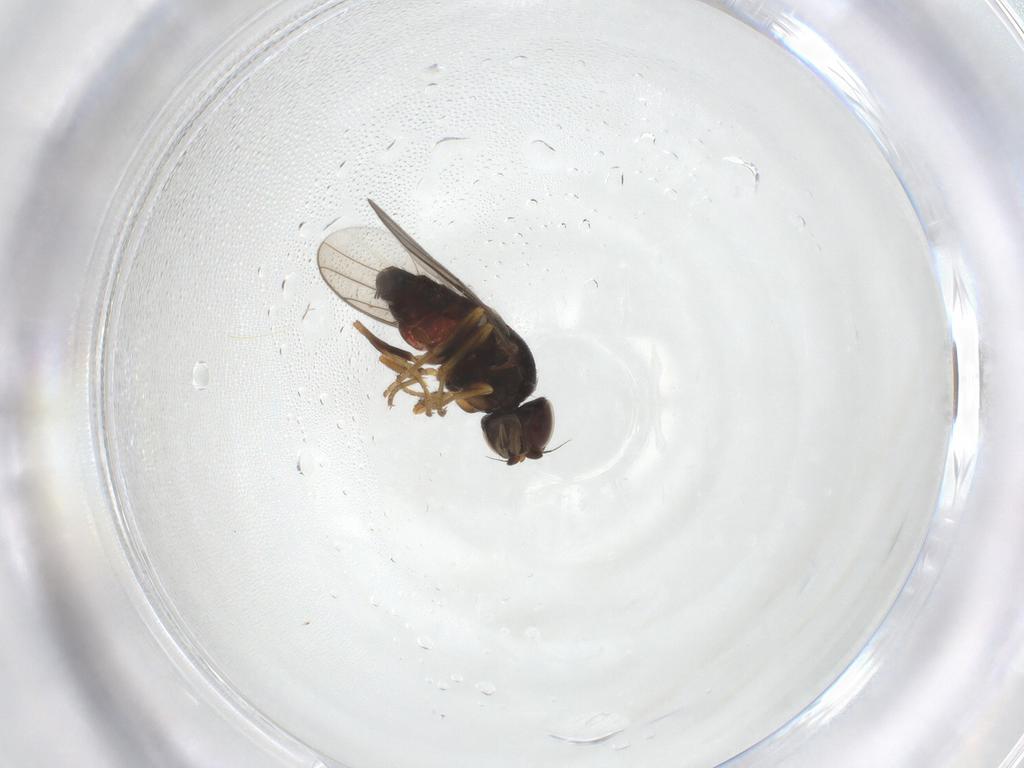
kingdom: Animalia
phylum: Arthropoda
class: Insecta
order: Diptera
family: Chloropidae
